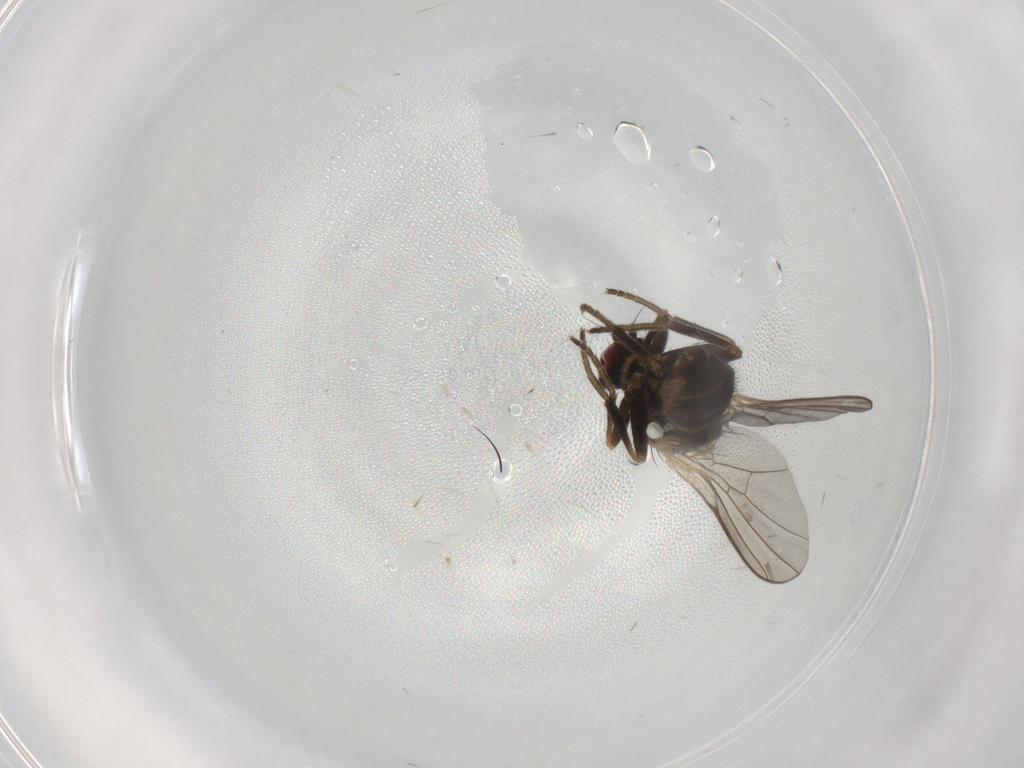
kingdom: Animalia
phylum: Arthropoda
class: Insecta
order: Diptera
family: Agromyzidae
